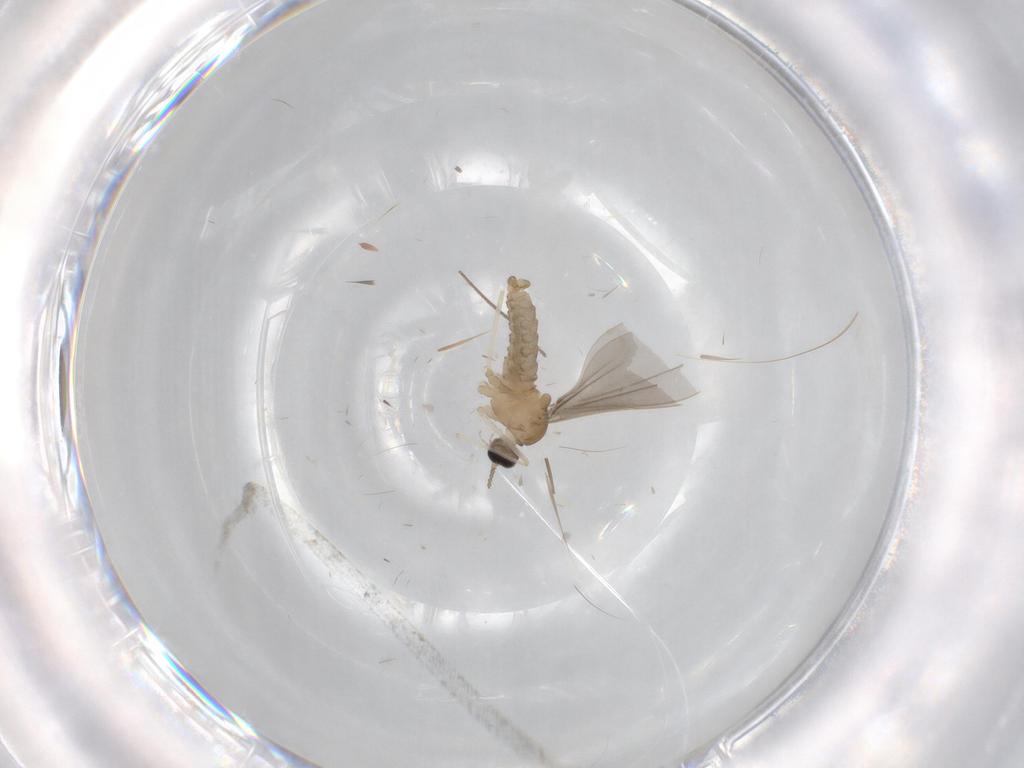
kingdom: Animalia
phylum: Arthropoda
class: Insecta
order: Diptera
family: Cecidomyiidae
